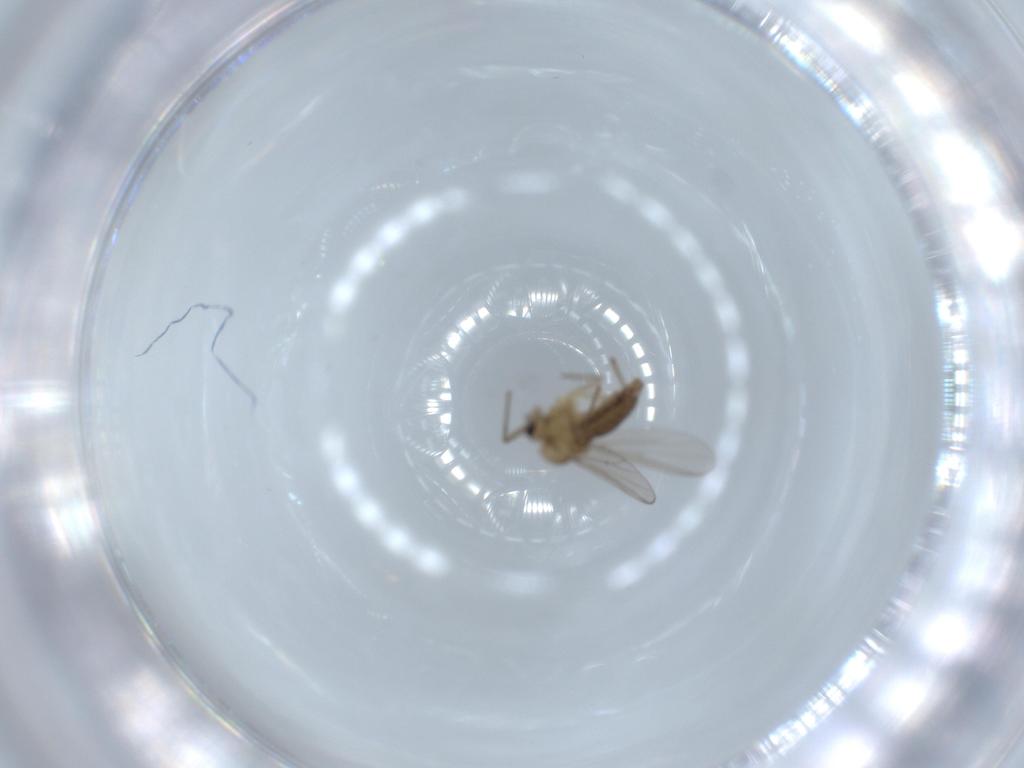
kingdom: Animalia
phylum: Arthropoda
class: Insecta
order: Diptera
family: Chironomidae
